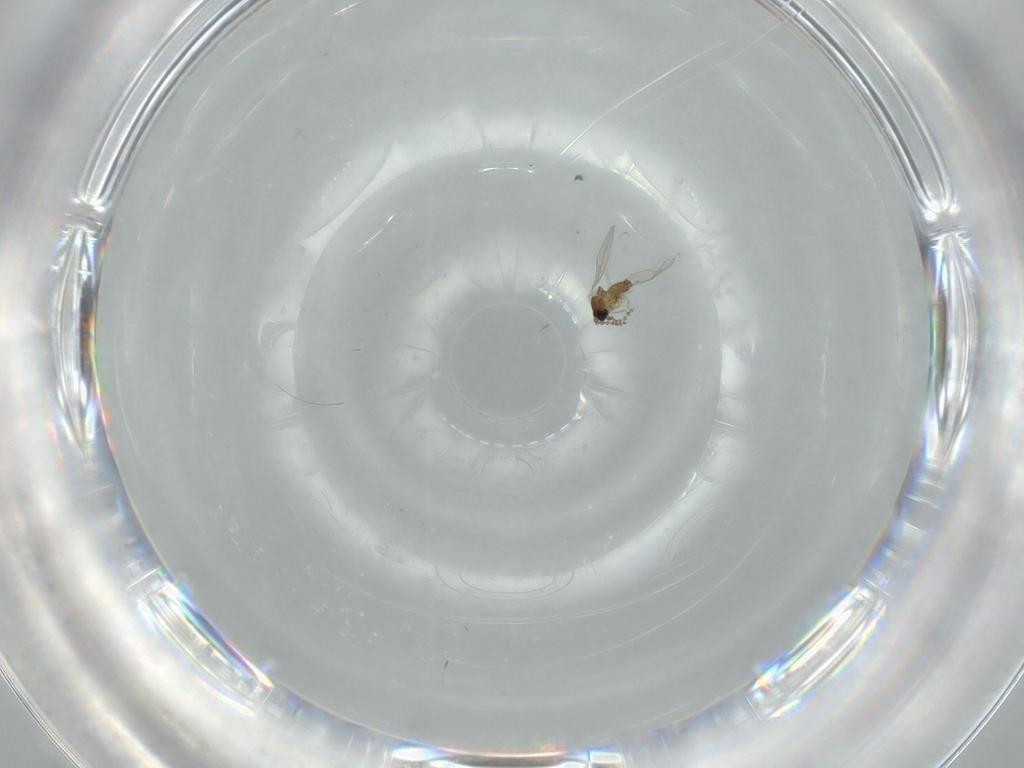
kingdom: Animalia
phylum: Arthropoda
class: Insecta
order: Diptera
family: Cecidomyiidae
